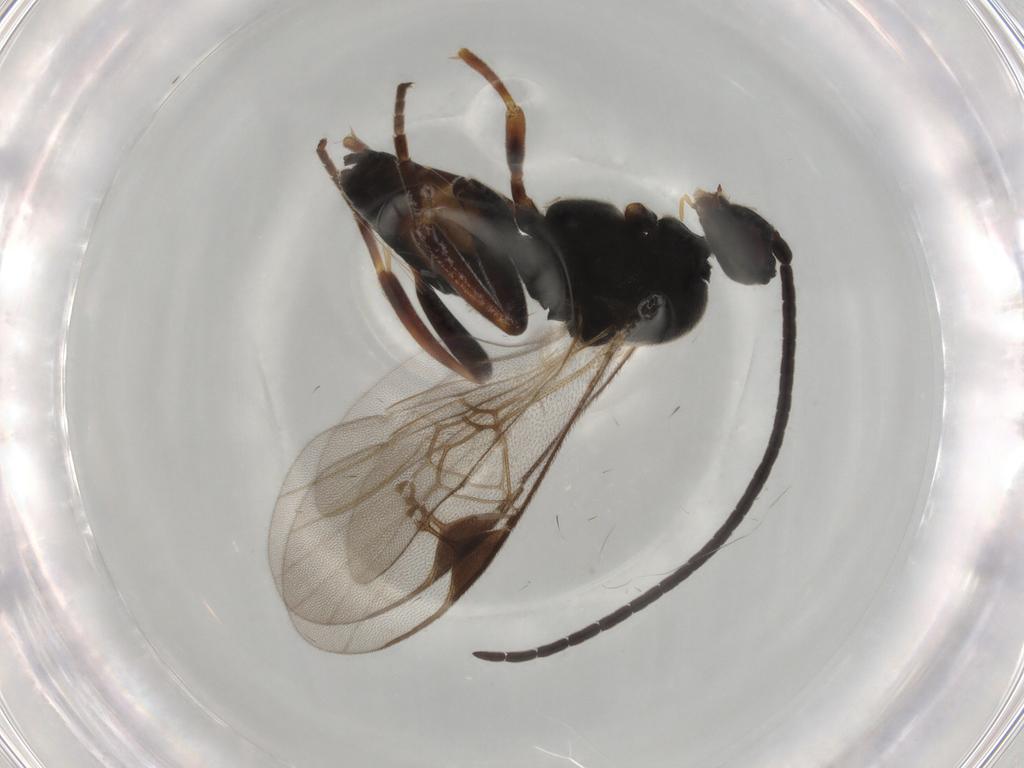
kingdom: Animalia
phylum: Arthropoda
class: Insecta
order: Hymenoptera
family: Braconidae
